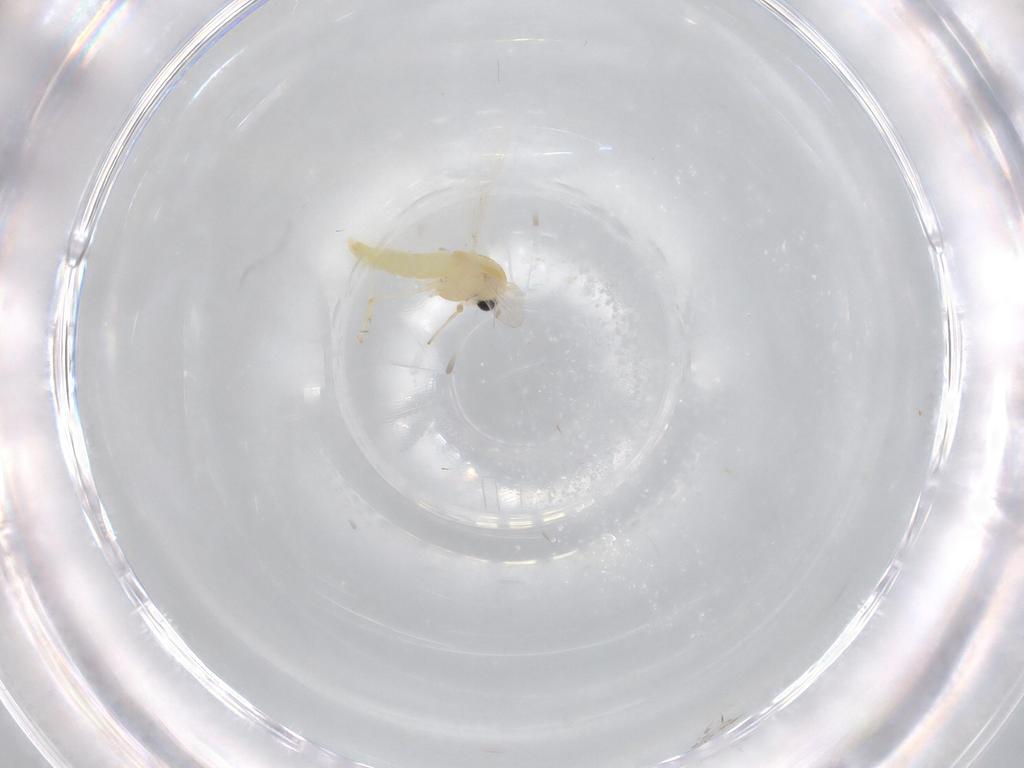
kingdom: Animalia
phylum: Arthropoda
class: Insecta
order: Diptera
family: Chironomidae
